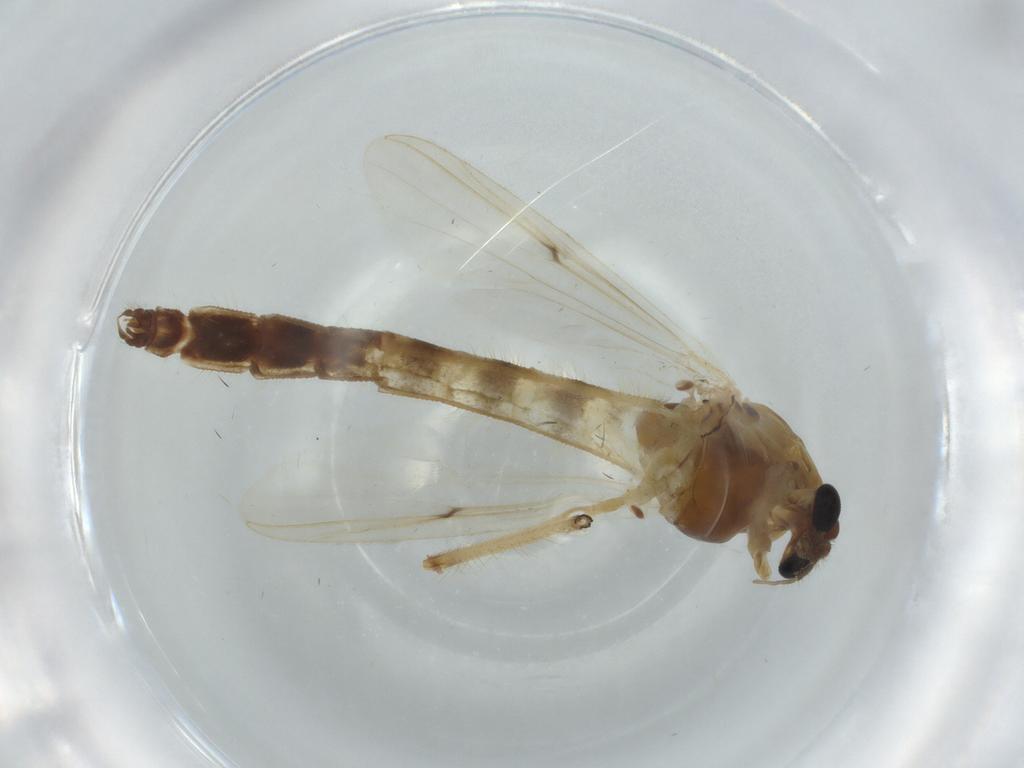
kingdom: Animalia
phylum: Arthropoda
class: Insecta
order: Diptera
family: Chironomidae
